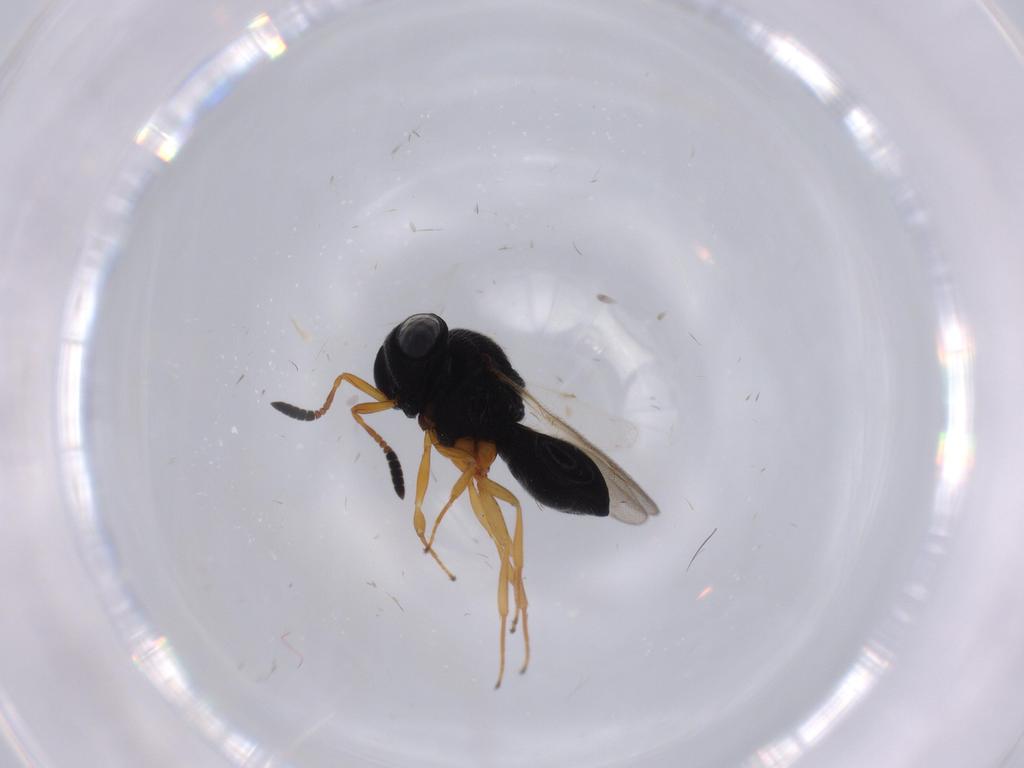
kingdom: Animalia
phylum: Arthropoda
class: Insecta
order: Hymenoptera
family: Scelionidae
